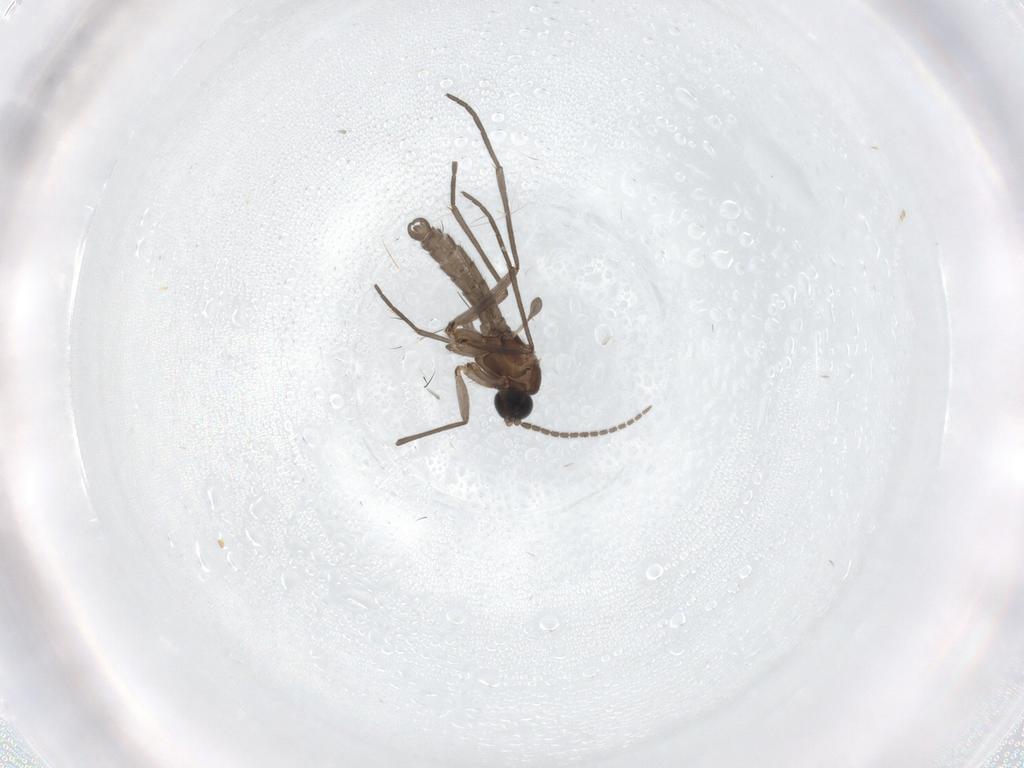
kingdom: Animalia
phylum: Arthropoda
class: Insecta
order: Diptera
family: Sciaridae
